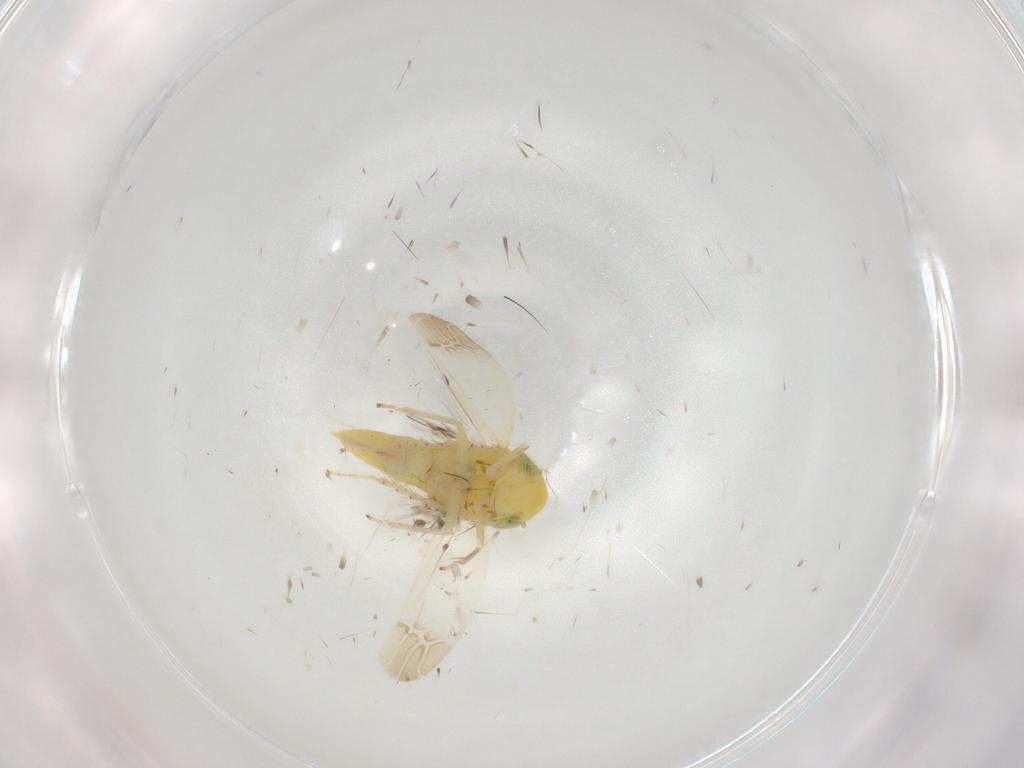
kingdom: Animalia
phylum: Arthropoda
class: Insecta
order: Hemiptera
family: Cicadellidae
